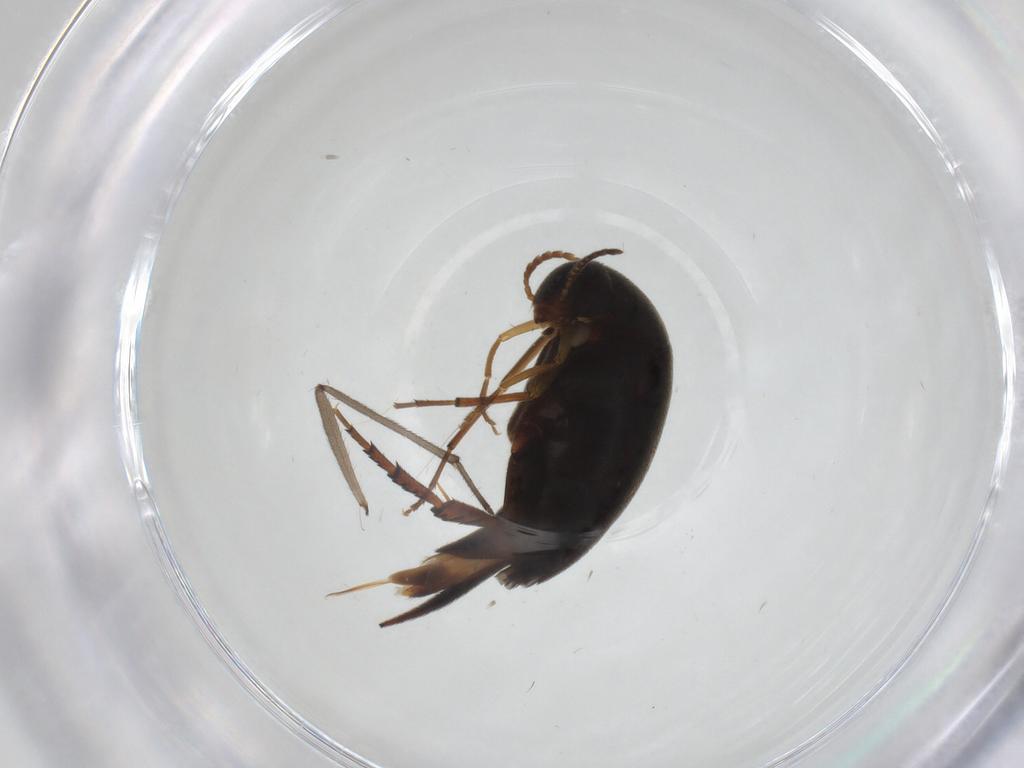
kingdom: Animalia
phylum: Arthropoda
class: Insecta
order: Coleoptera
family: Mordellidae
